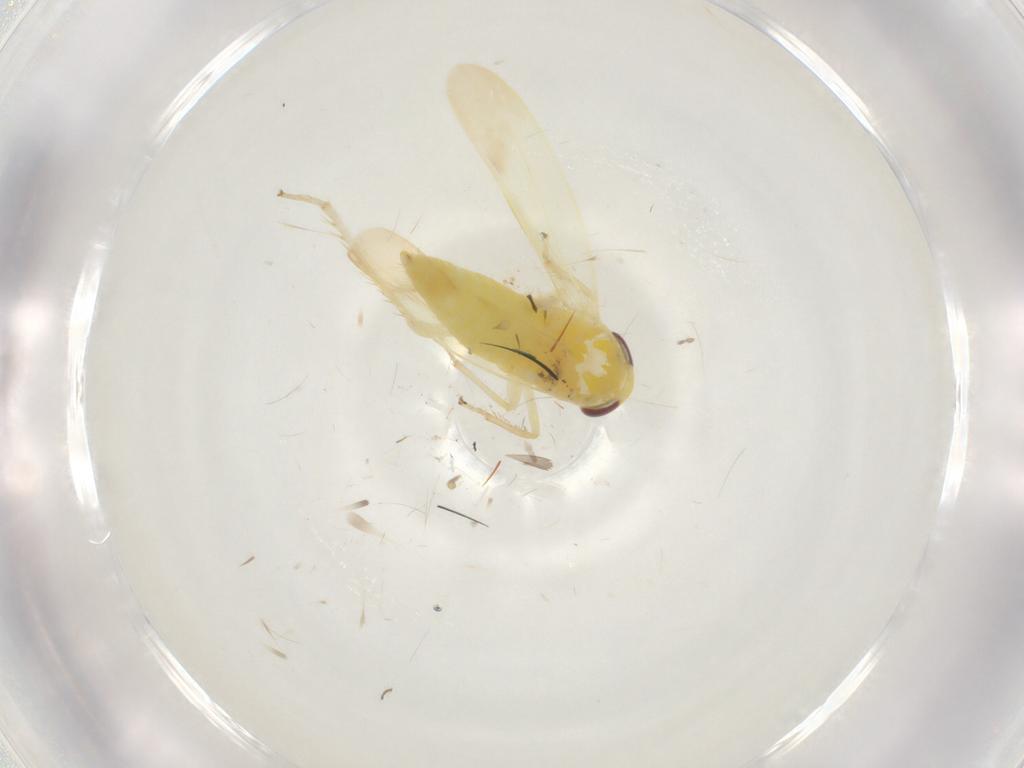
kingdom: Animalia
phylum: Arthropoda
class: Insecta
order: Hemiptera
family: Cicadellidae
